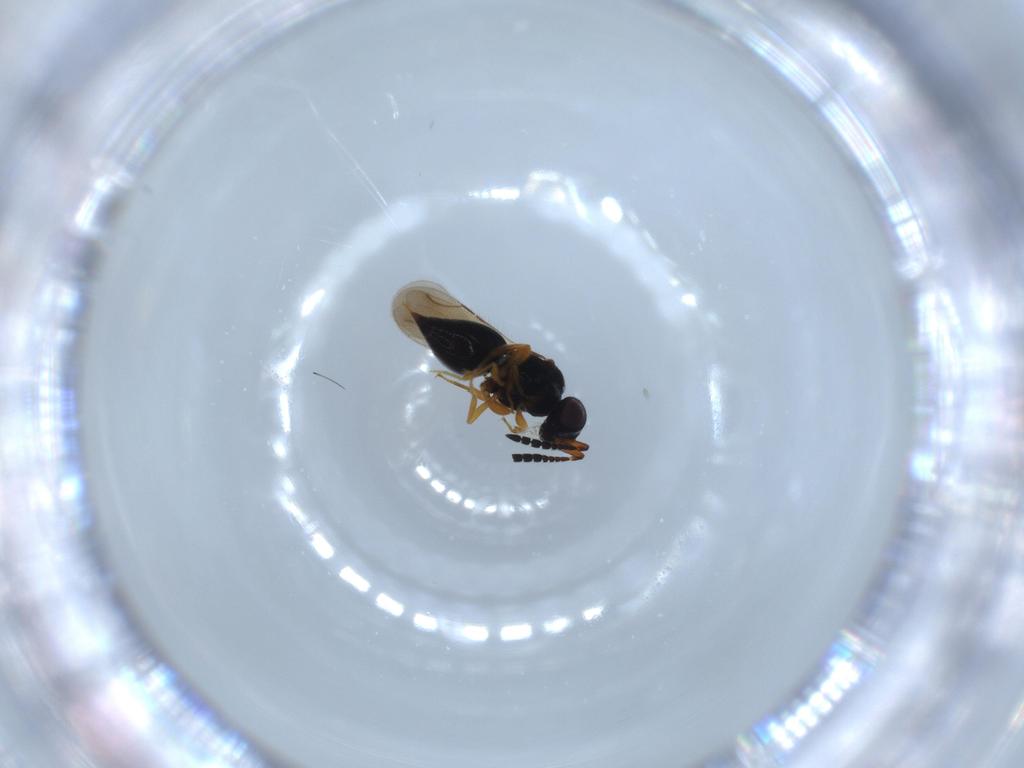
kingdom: Animalia
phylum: Arthropoda
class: Insecta
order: Hymenoptera
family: Ceraphronidae
